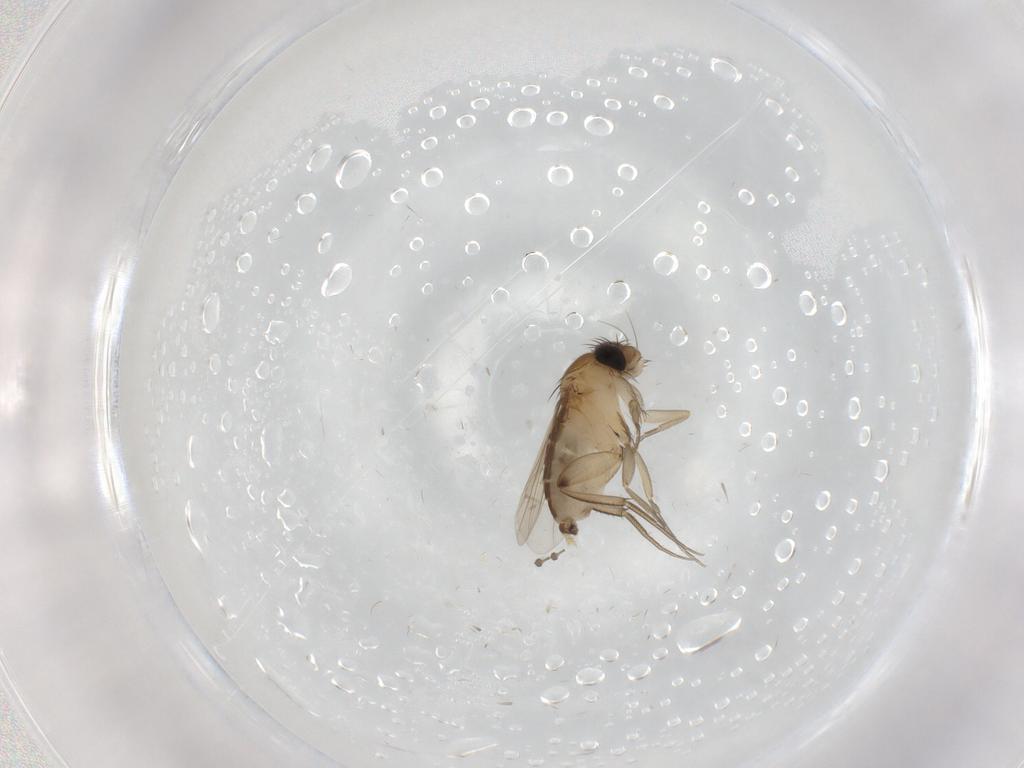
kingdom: Animalia
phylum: Arthropoda
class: Insecta
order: Diptera
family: Phoridae
